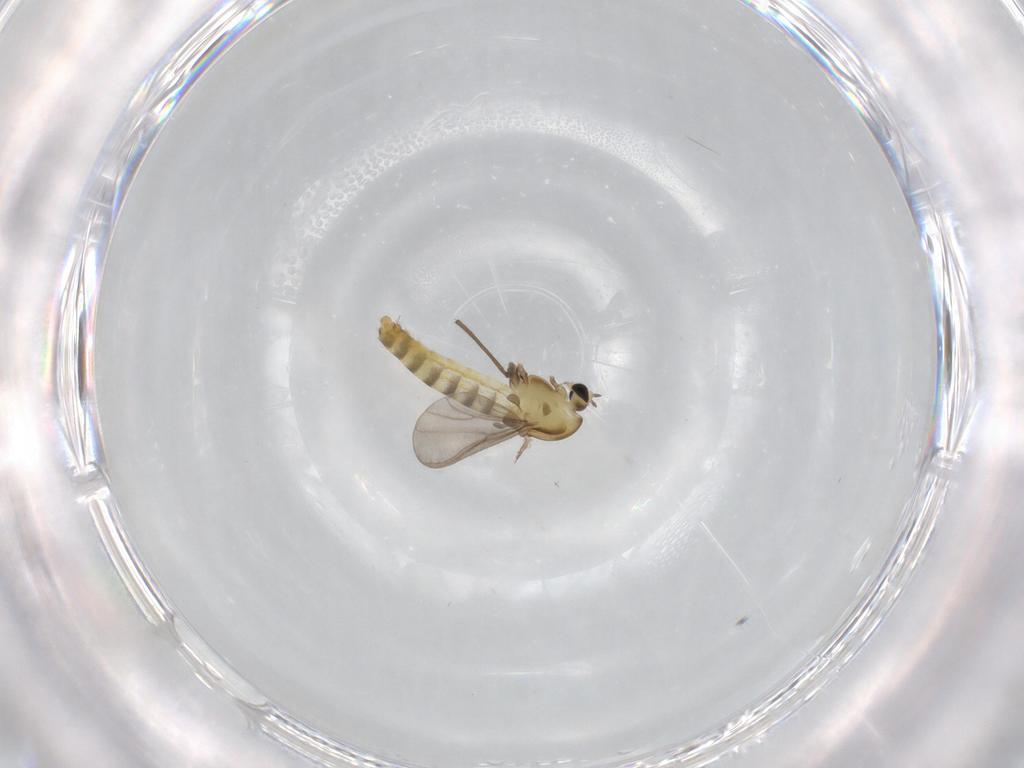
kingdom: Animalia
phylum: Arthropoda
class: Insecta
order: Diptera
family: Chironomidae
